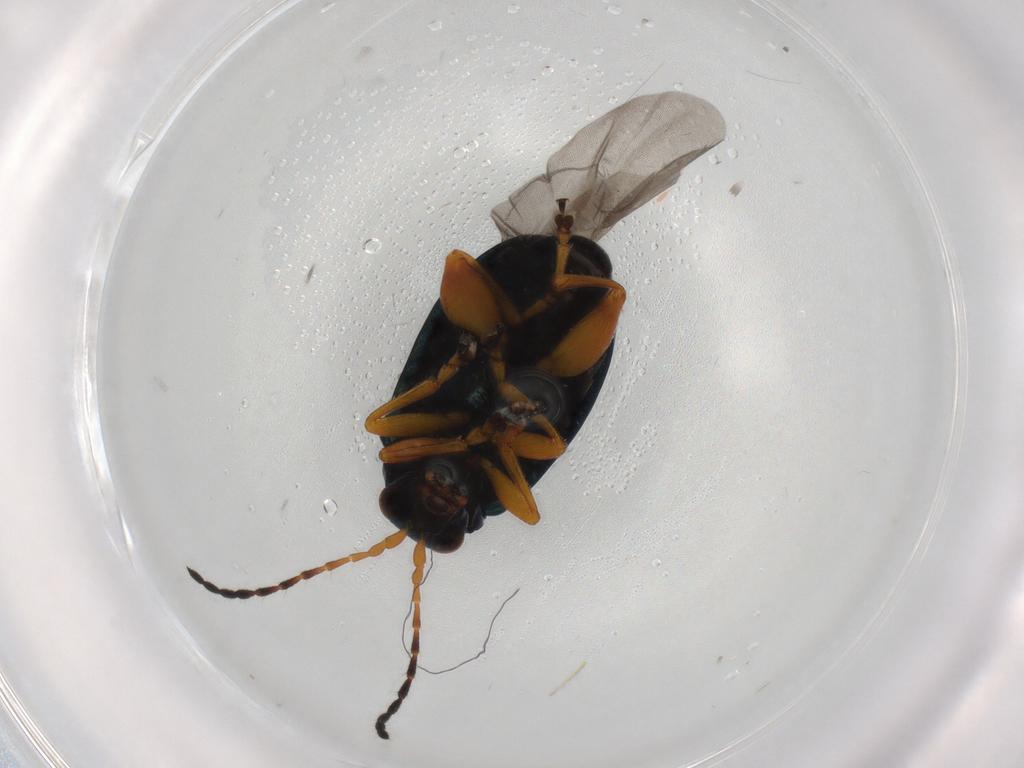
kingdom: Animalia
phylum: Arthropoda
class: Insecta
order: Coleoptera
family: Chrysomelidae
